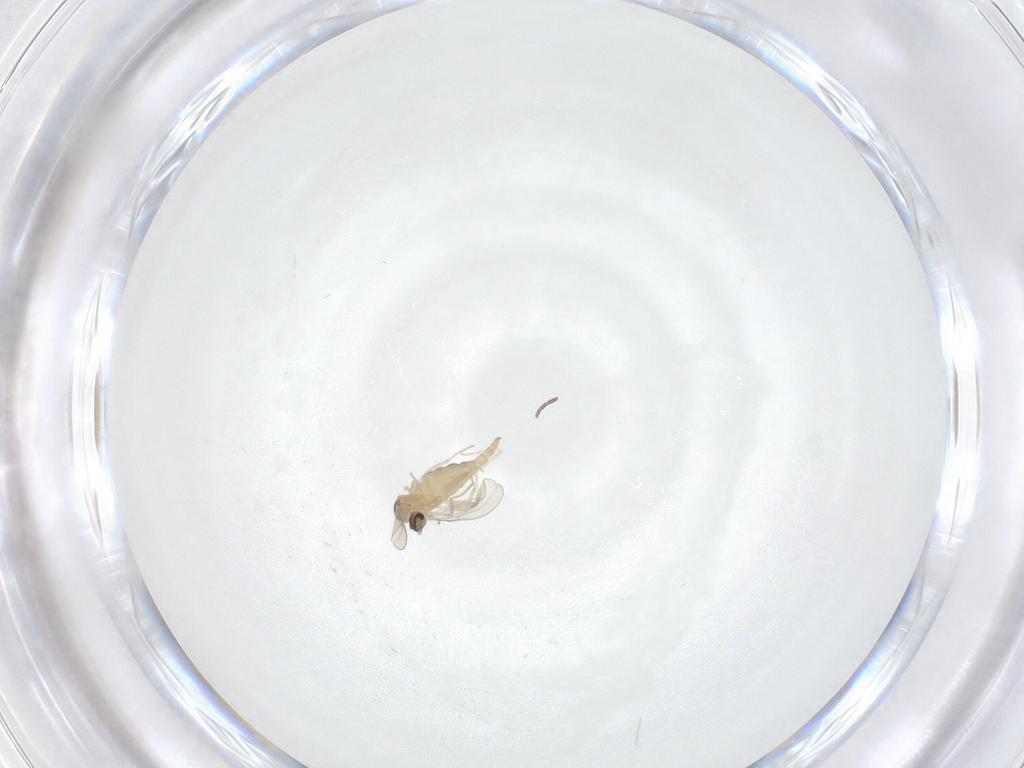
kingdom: Animalia
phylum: Arthropoda
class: Insecta
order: Diptera
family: Cecidomyiidae
